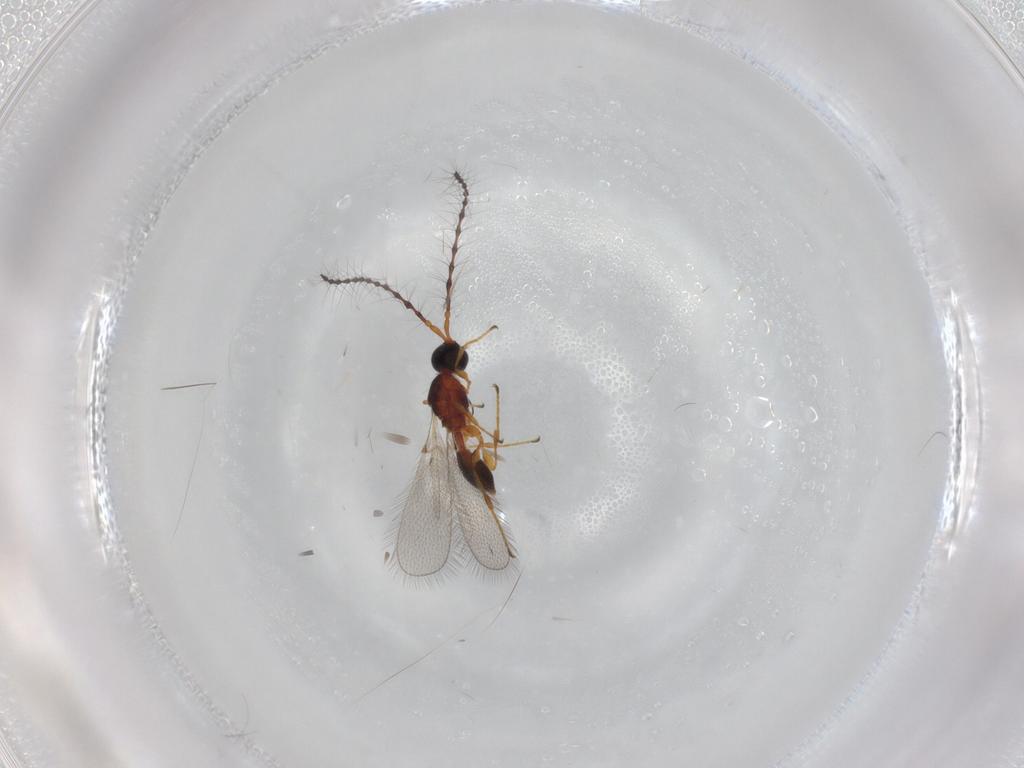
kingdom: Animalia
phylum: Arthropoda
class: Insecta
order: Hymenoptera
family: Diapriidae
